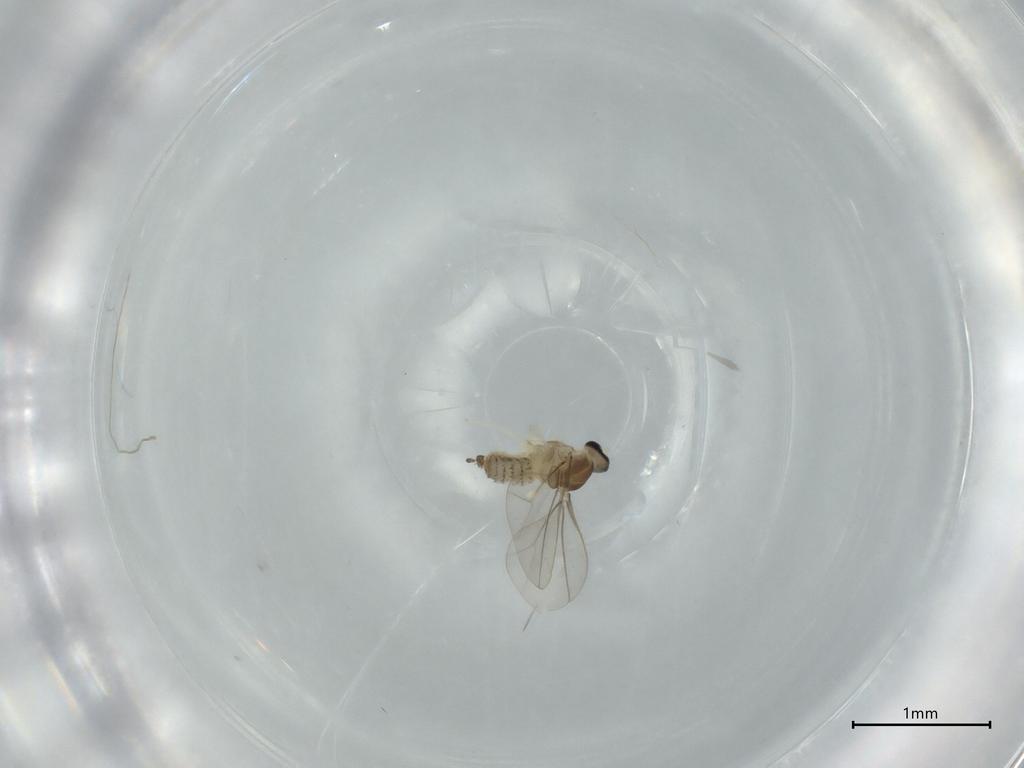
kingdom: Animalia
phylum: Arthropoda
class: Insecta
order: Diptera
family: Cecidomyiidae
